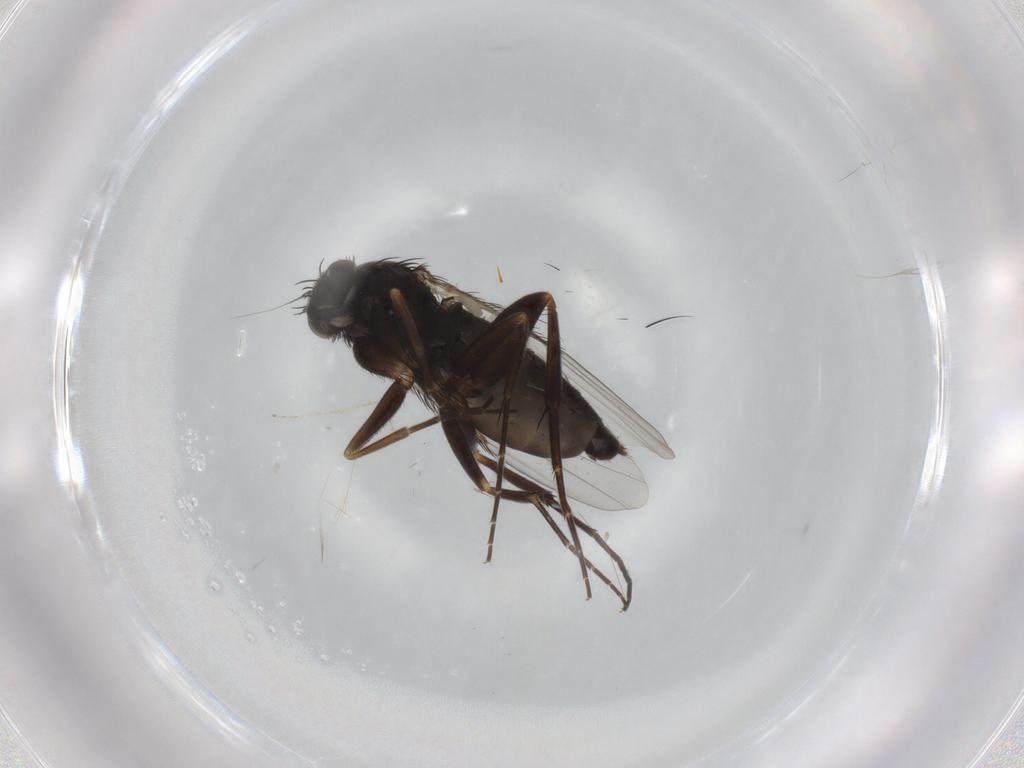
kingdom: Animalia
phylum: Arthropoda
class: Insecta
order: Diptera
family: Phoridae
